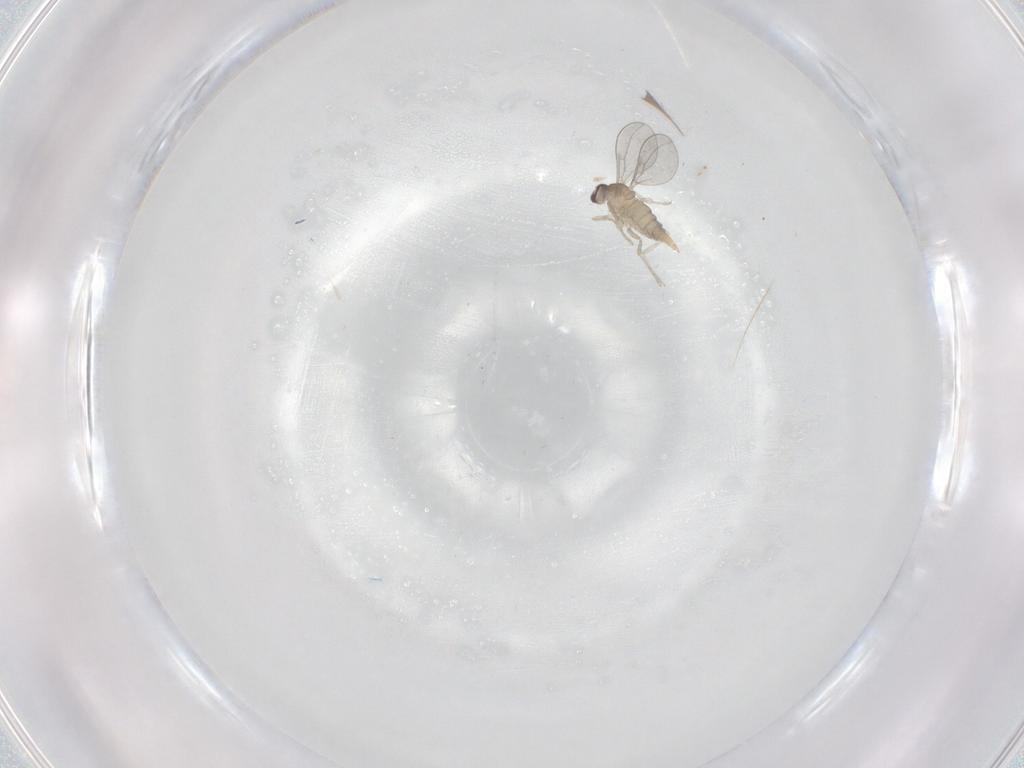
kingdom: Animalia
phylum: Arthropoda
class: Insecta
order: Diptera
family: Cecidomyiidae
